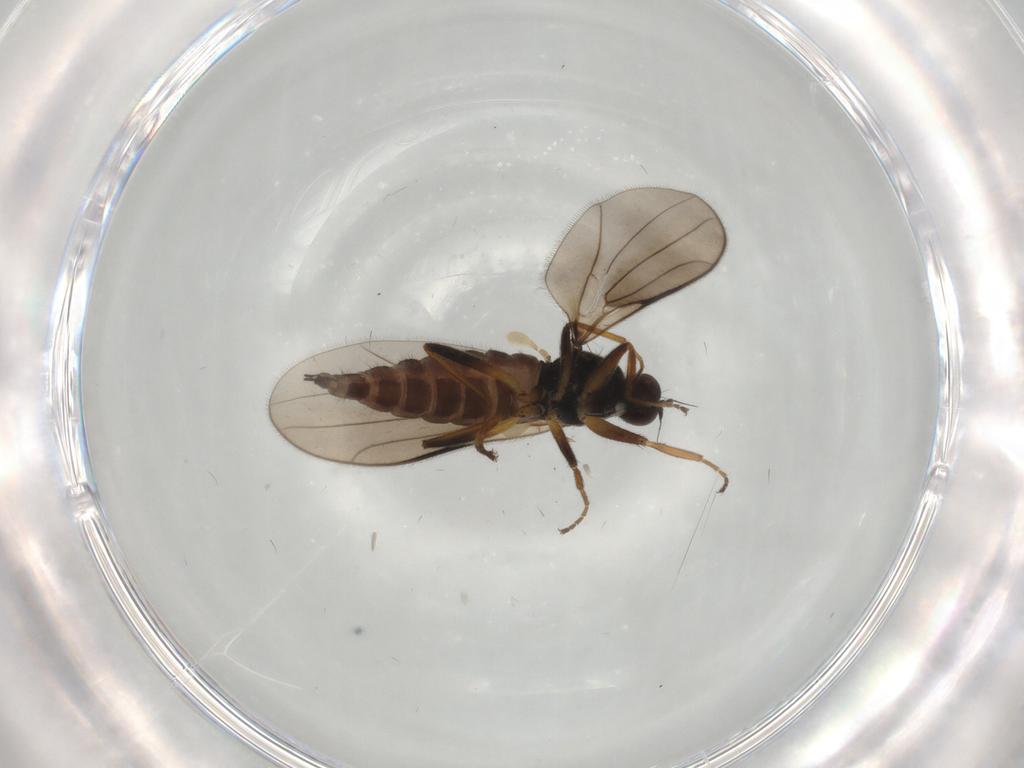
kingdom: Animalia
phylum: Arthropoda
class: Insecta
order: Diptera
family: Hybotidae
